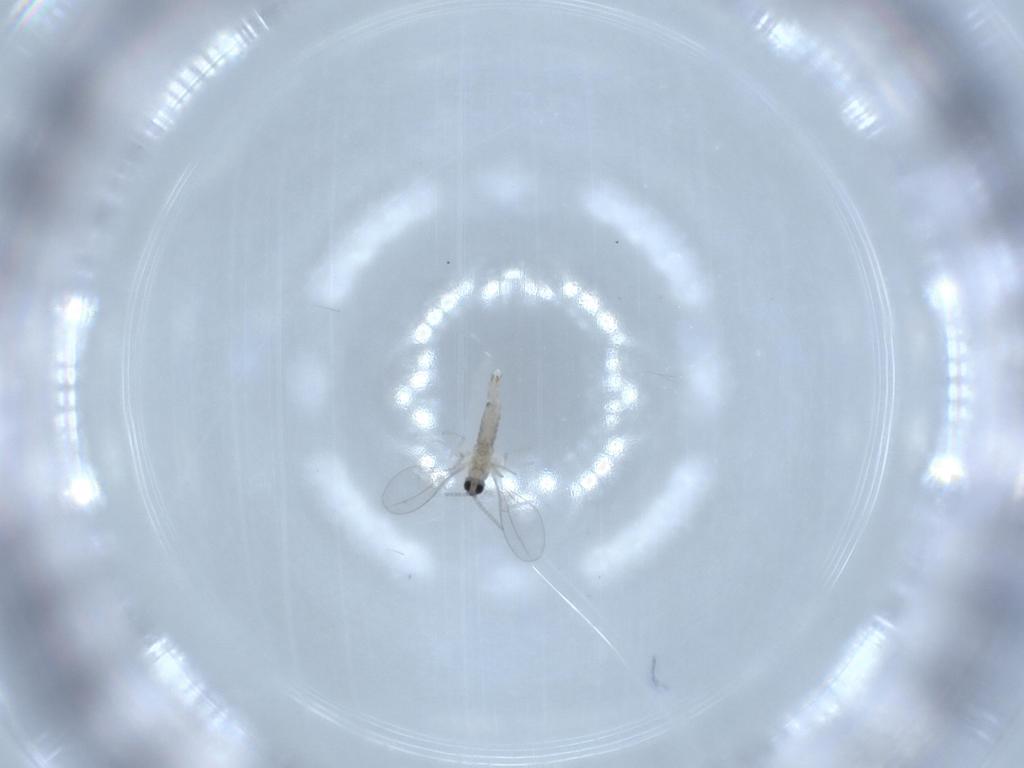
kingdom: Animalia
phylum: Arthropoda
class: Insecta
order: Diptera
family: Cecidomyiidae
